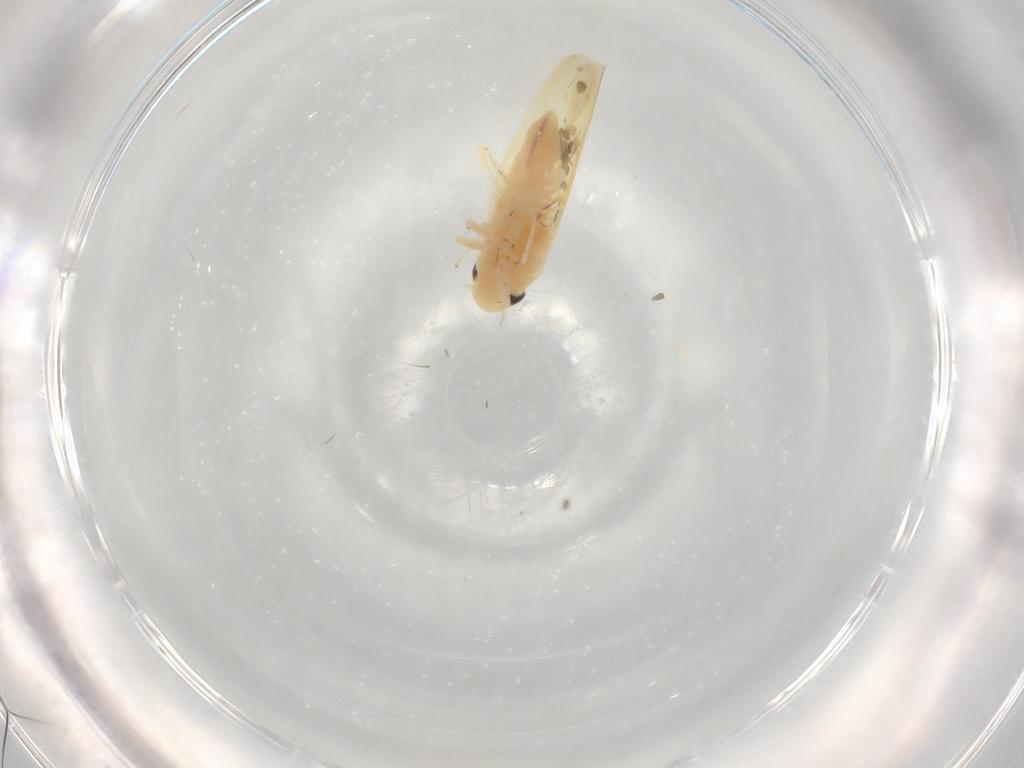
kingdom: Animalia
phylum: Arthropoda
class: Insecta
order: Hemiptera
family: Cicadellidae
